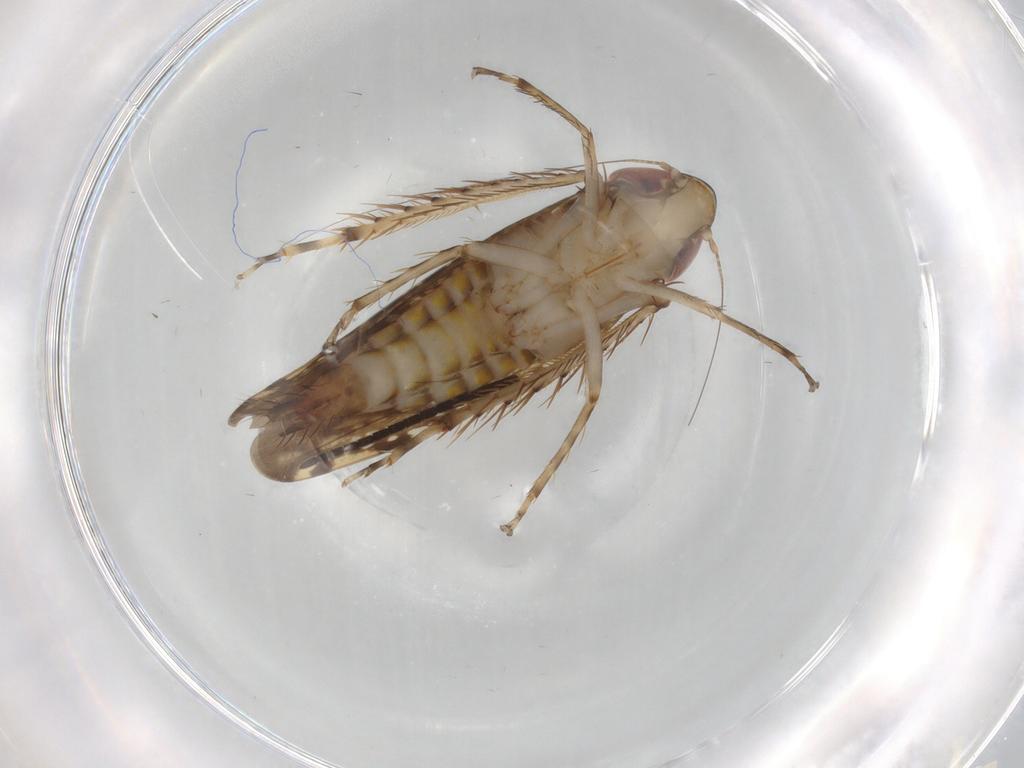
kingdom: Animalia
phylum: Arthropoda
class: Insecta
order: Hemiptera
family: Cicadellidae
